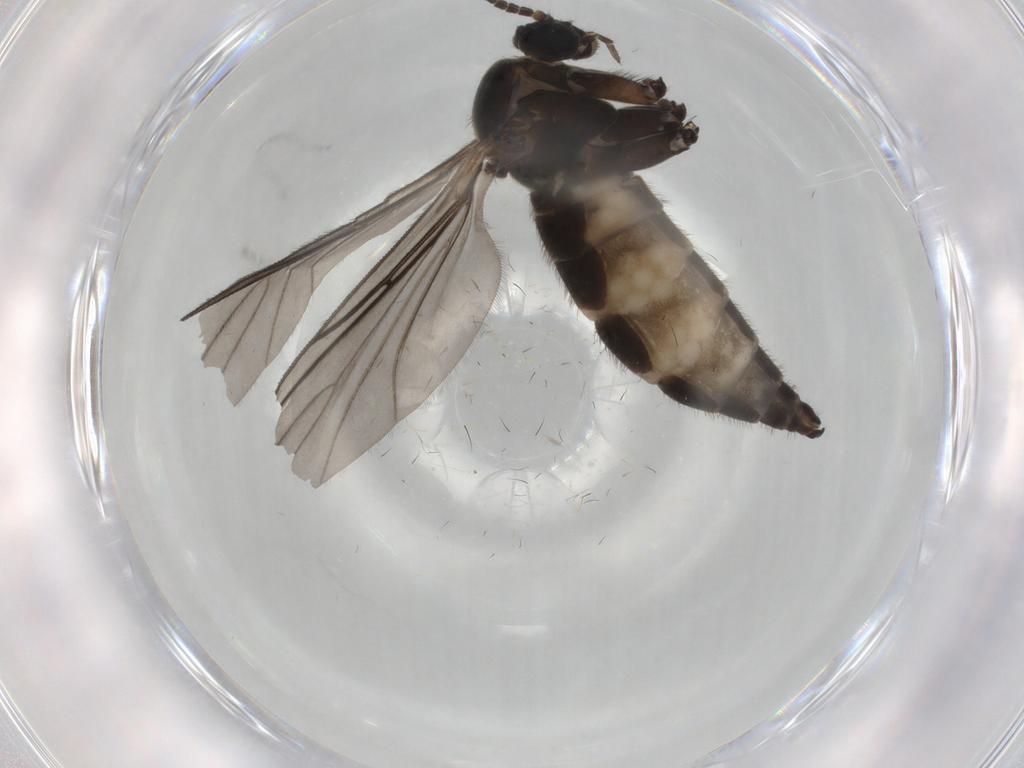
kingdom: Animalia
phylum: Arthropoda
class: Insecta
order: Diptera
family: Sciaridae
